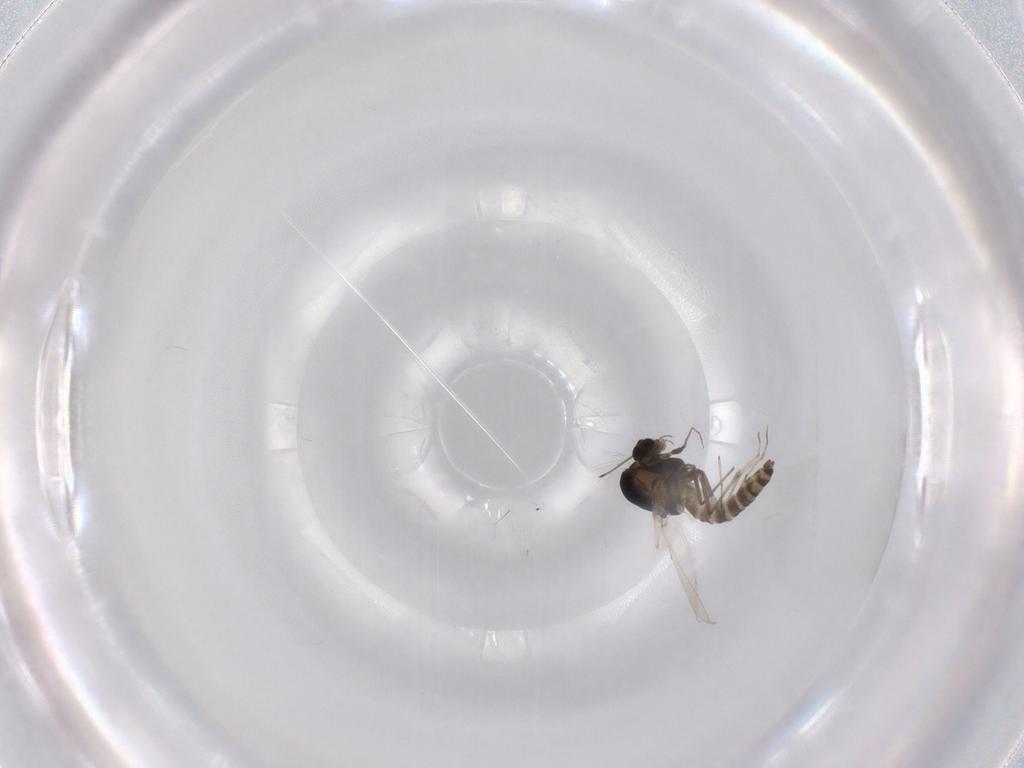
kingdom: Animalia
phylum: Arthropoda
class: Insecta
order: Diptera
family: Chironomidae
